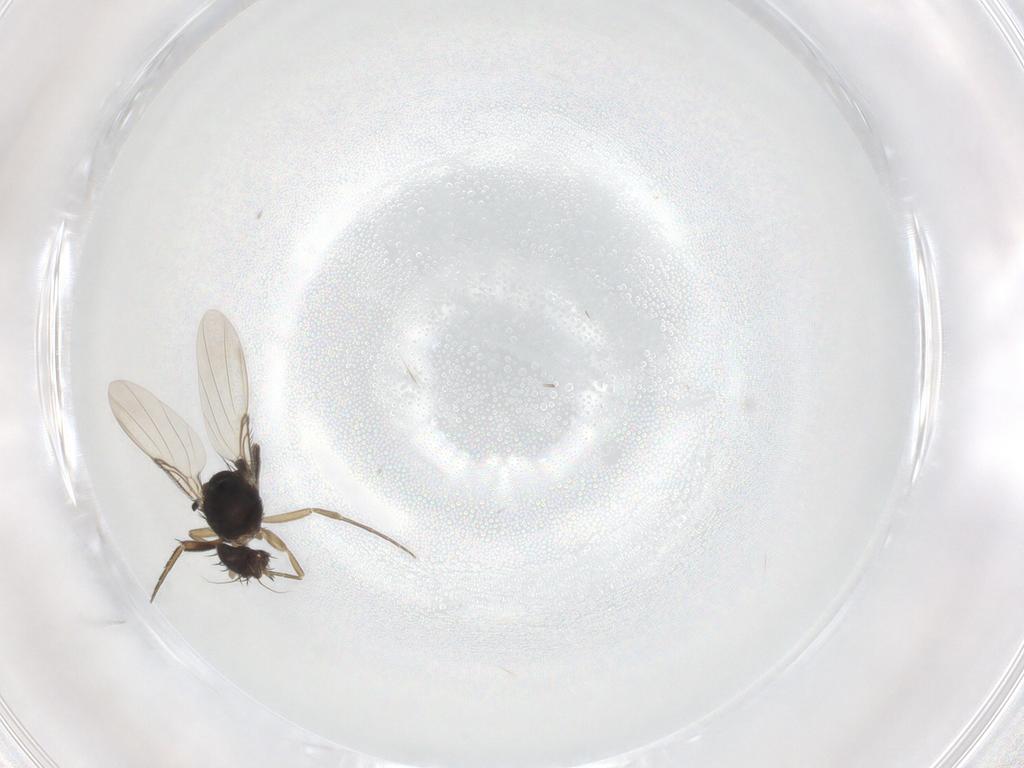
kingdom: Animalia
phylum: Arthropoda
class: Insecta
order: Diptera
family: Phoridae
